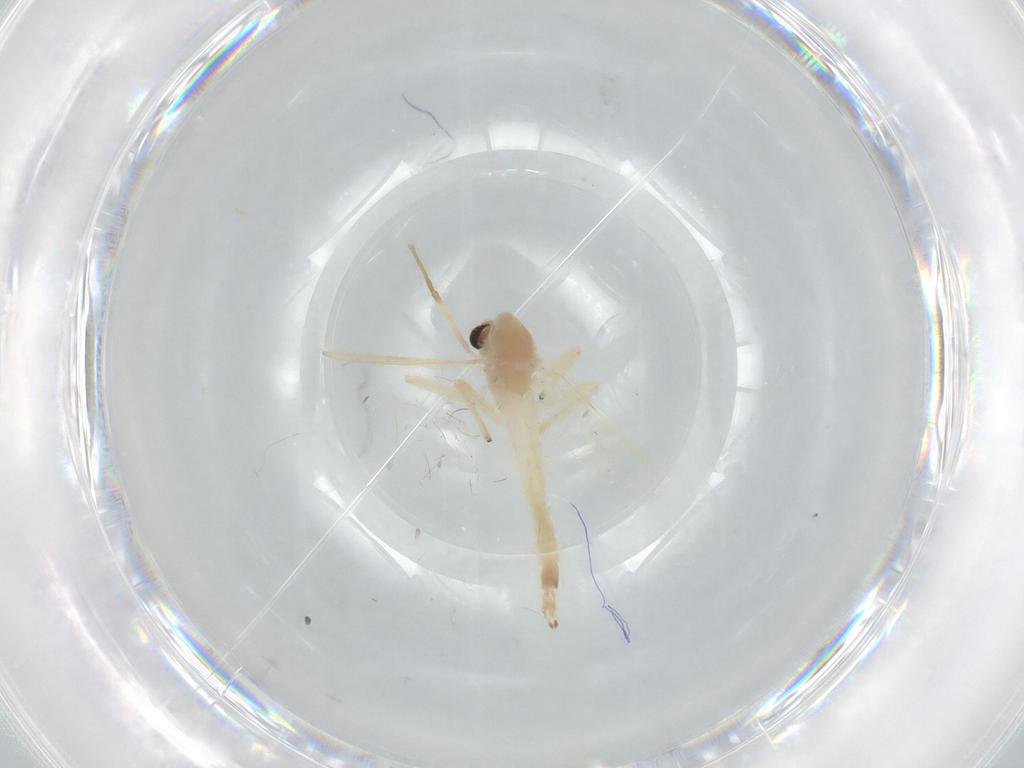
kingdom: Animalia
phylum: Arthropoda
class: Insecta
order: Diptera
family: Chironomidae
